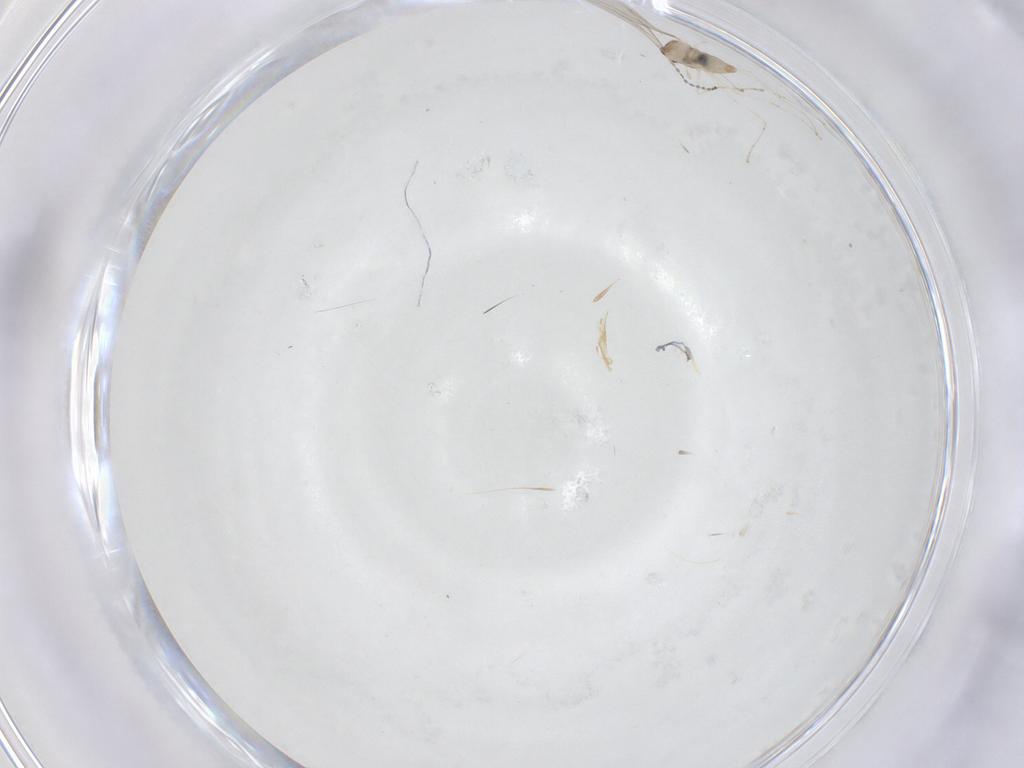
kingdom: Animalia
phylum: Arthropoda
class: Insecta
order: Diptera
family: Cecidomyiidae
